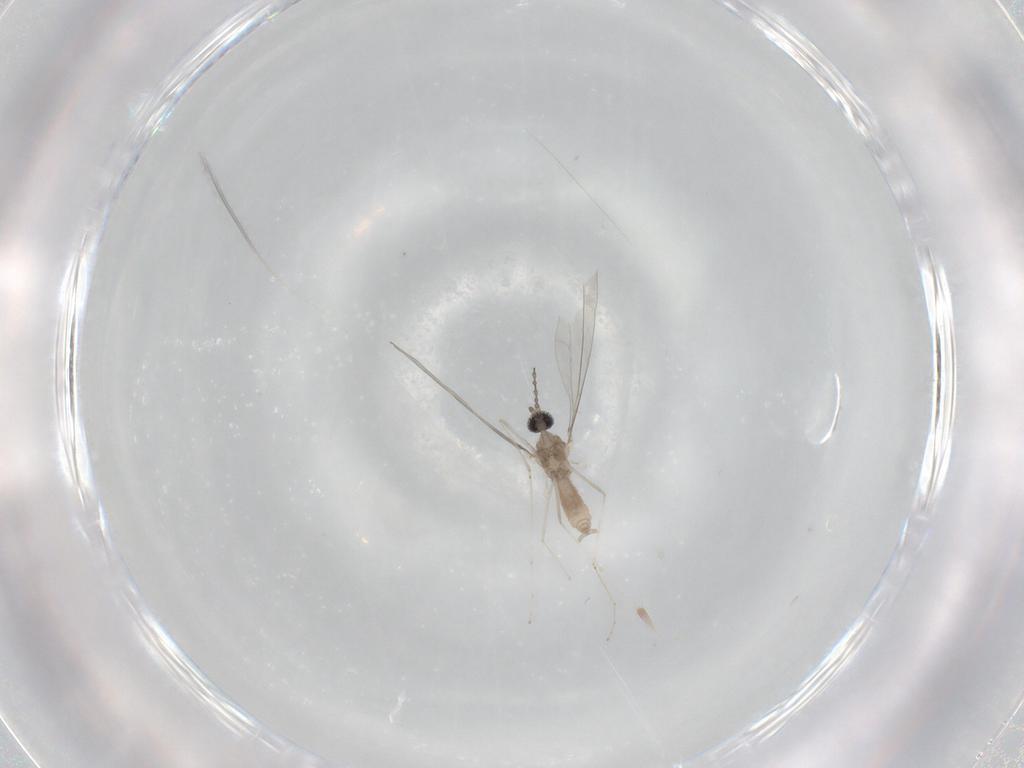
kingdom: Animalia
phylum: Arthropoda
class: Insecta
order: Diptera
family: Cecidomyiidae
